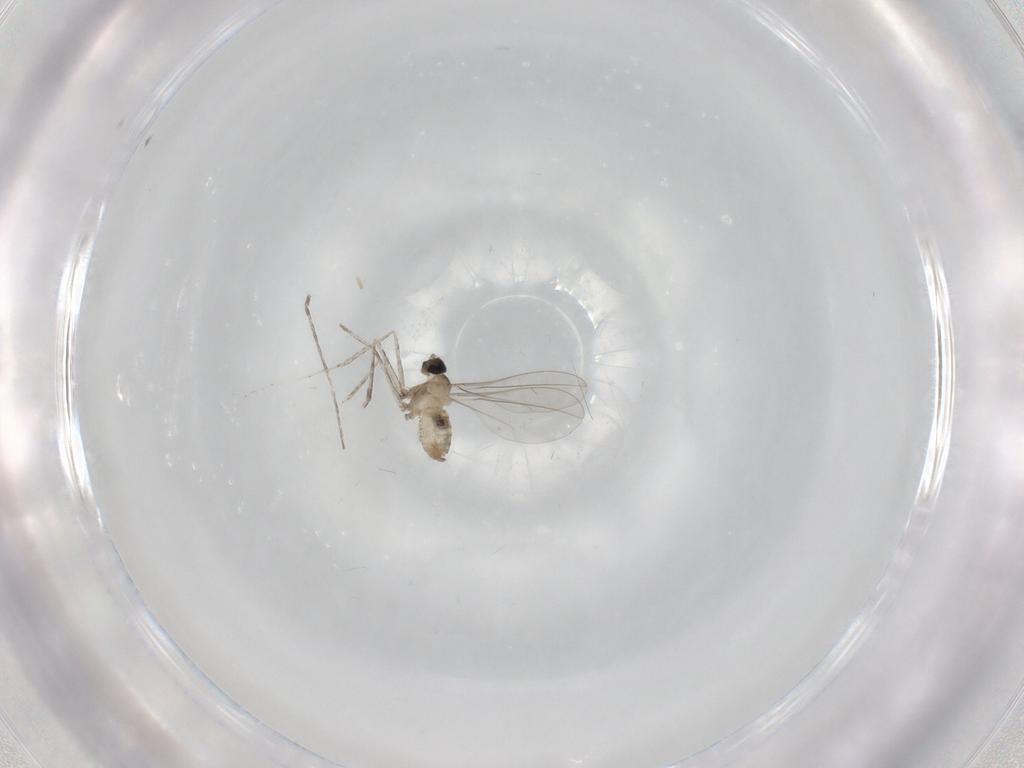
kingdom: Animalia
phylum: Arthropoda
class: Insecta
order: Diptera
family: Cecidomyiidae
